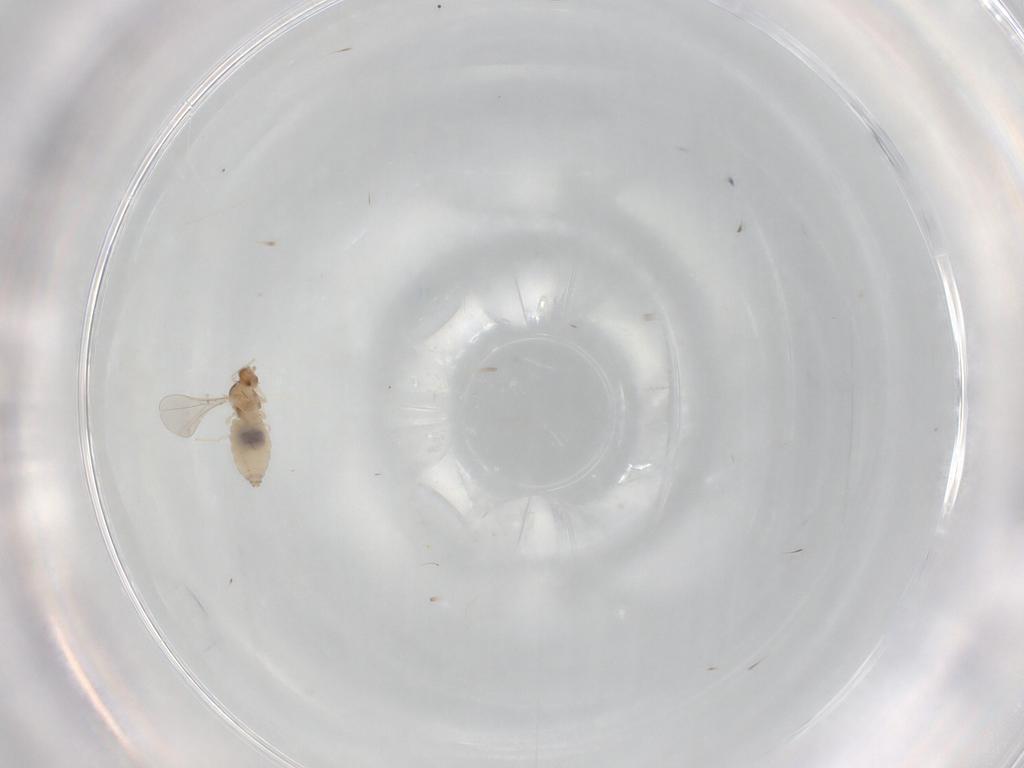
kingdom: Animalia
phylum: Arthropoda
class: Insecta
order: Diptera
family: Cecidomyiidae
